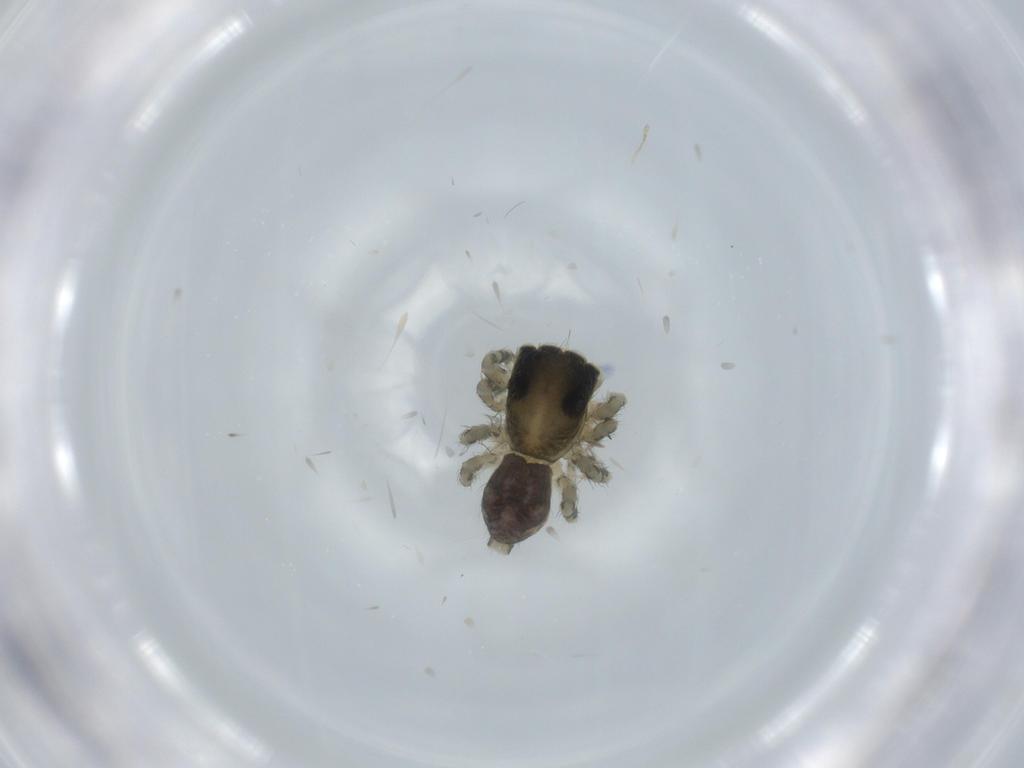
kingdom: Animalia
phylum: Arthropoda
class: Arachnida
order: Araneae
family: Salticidae
